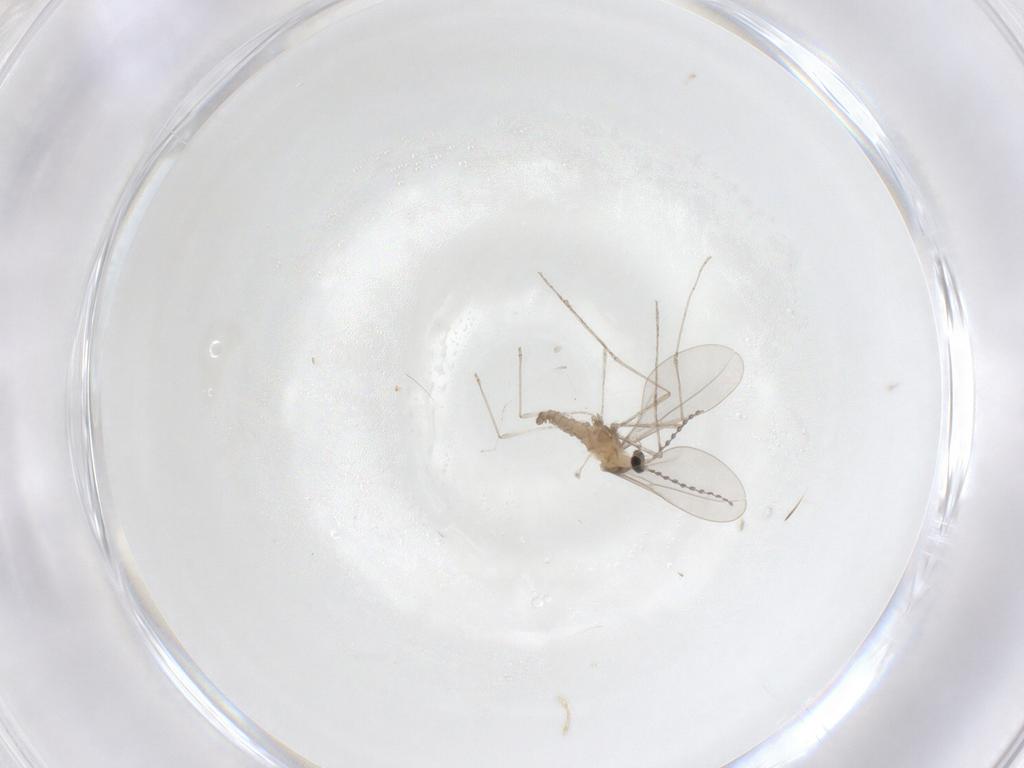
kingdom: Animalia
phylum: Arthropoda
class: Insecta
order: Diptera
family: Cecidomyiidae
